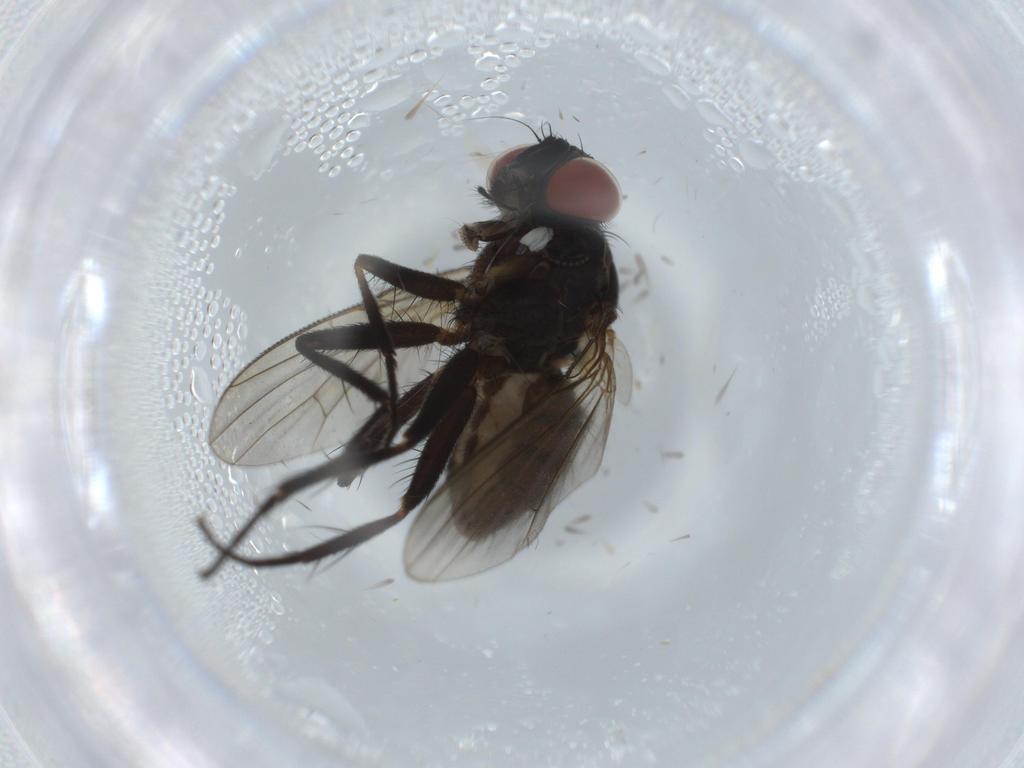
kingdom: Animalia
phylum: Arthropoda
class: Insecta
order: Diptera
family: Muscidae
